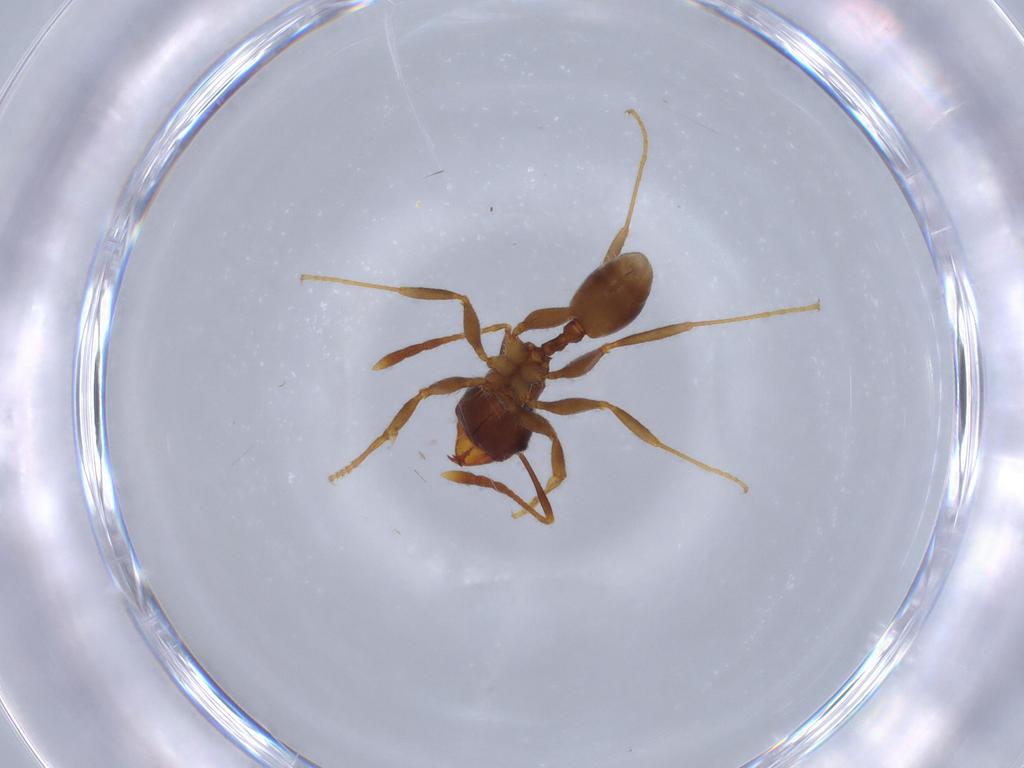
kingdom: Animalia
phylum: Arthropoda
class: Insecta
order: Hymenoptera
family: Formicidae
